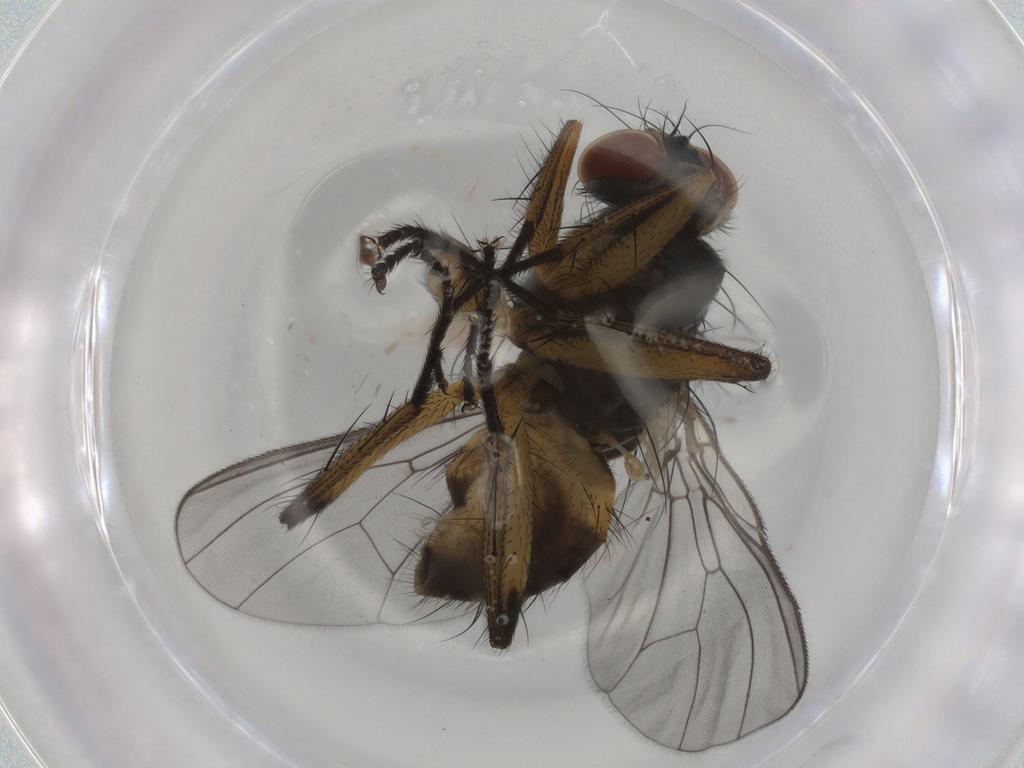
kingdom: Animalia
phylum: Arthropoda
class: Insecta
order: Diptera
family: Muscidae
